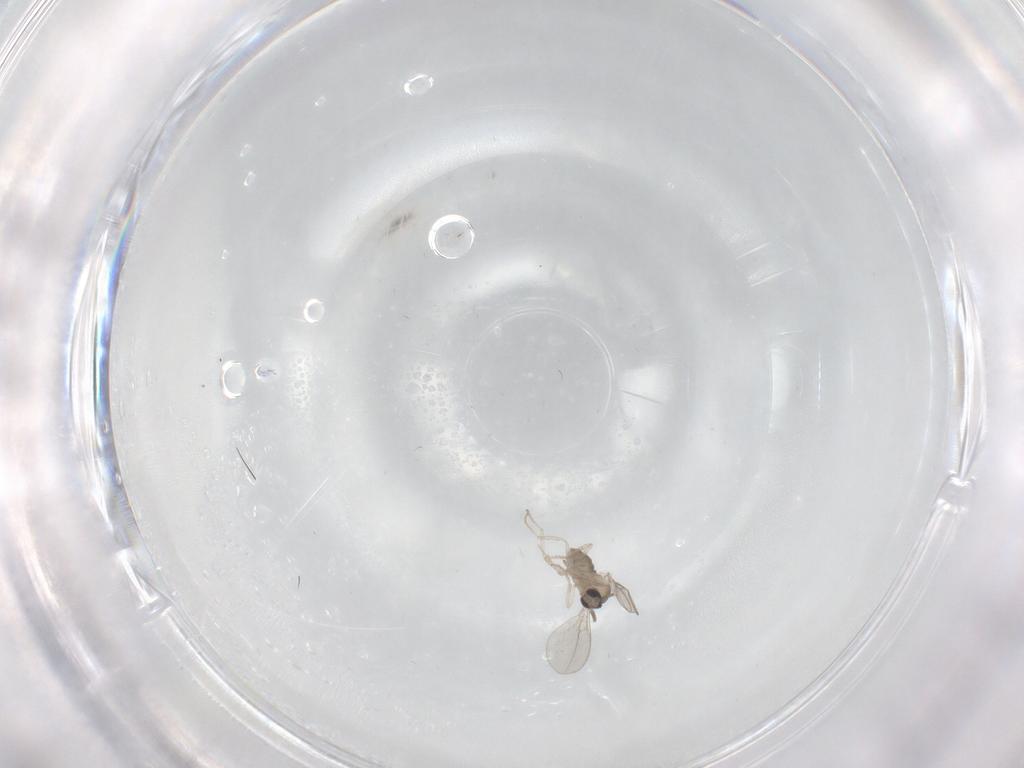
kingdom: Animalia
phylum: Arthropoda
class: Insecta
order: Diptera
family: Cecidomyiidae
